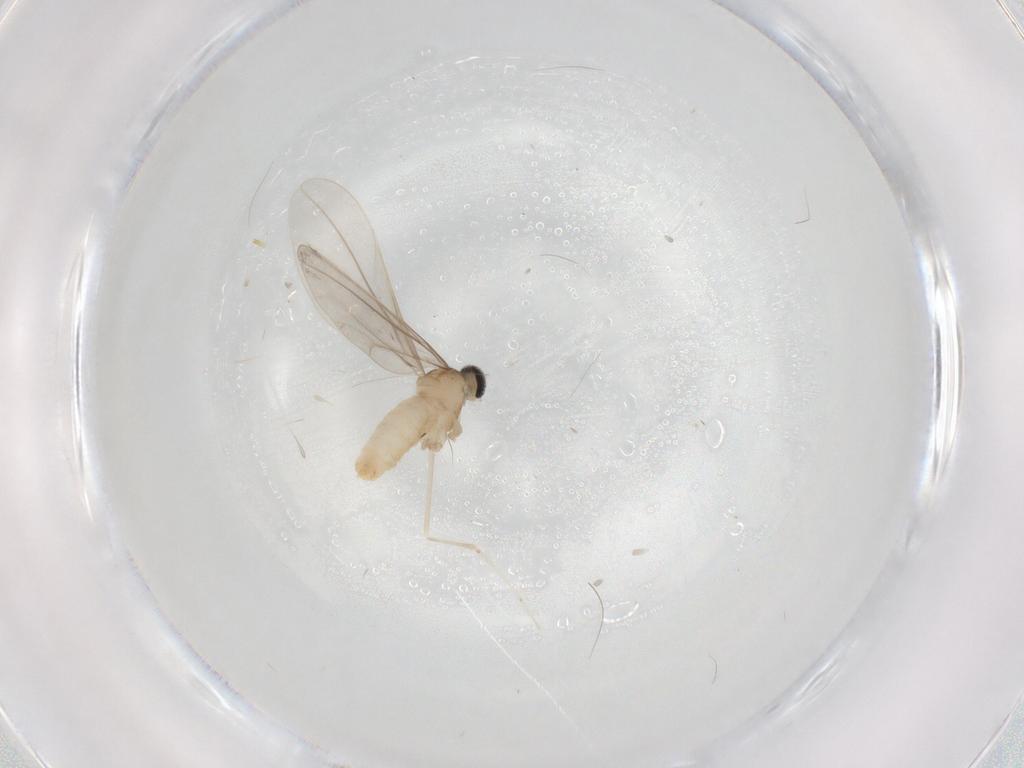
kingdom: Animalia
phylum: Arthropoda
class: Insecta
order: Diptera
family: Cecidomyiidae
